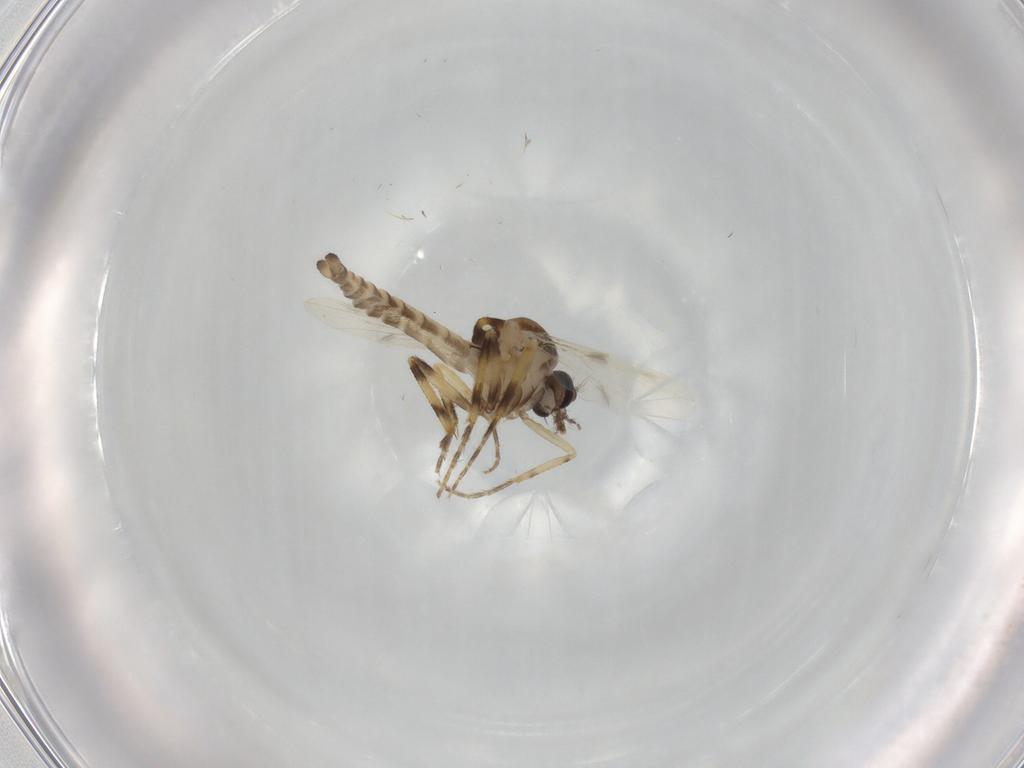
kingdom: Animalia
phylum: Arthropoda
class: Insecta
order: Diptera
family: Ceratopogonidae
